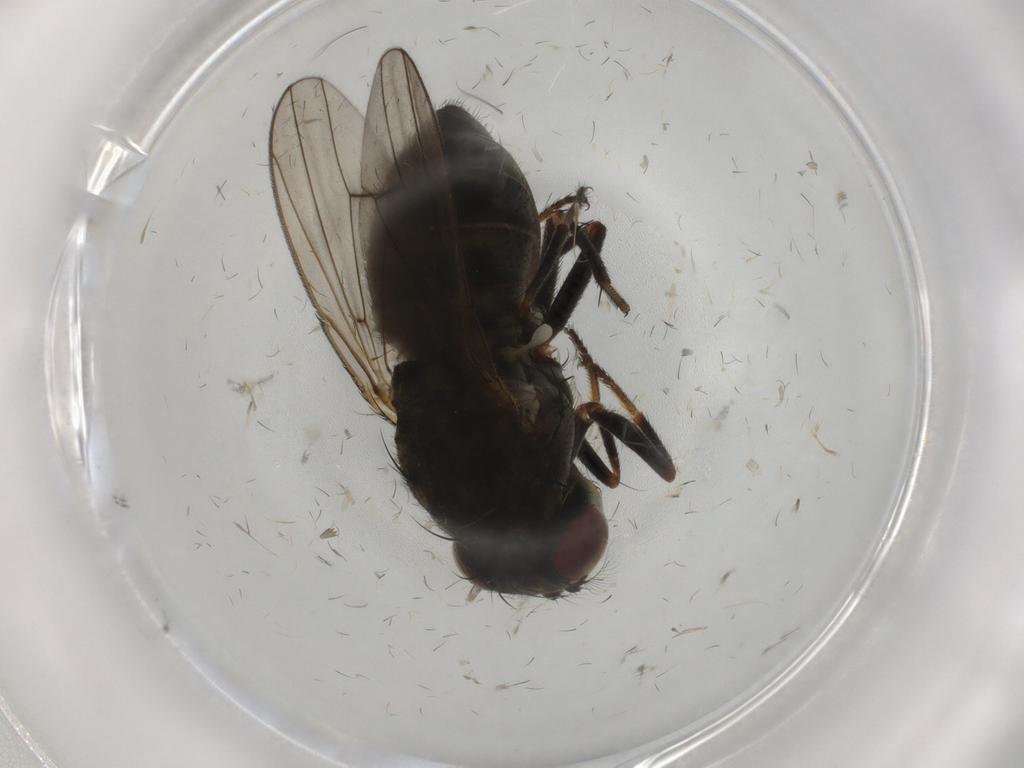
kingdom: Animalia
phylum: Arthropoda
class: Insecta
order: Diptera
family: Ephydridae
